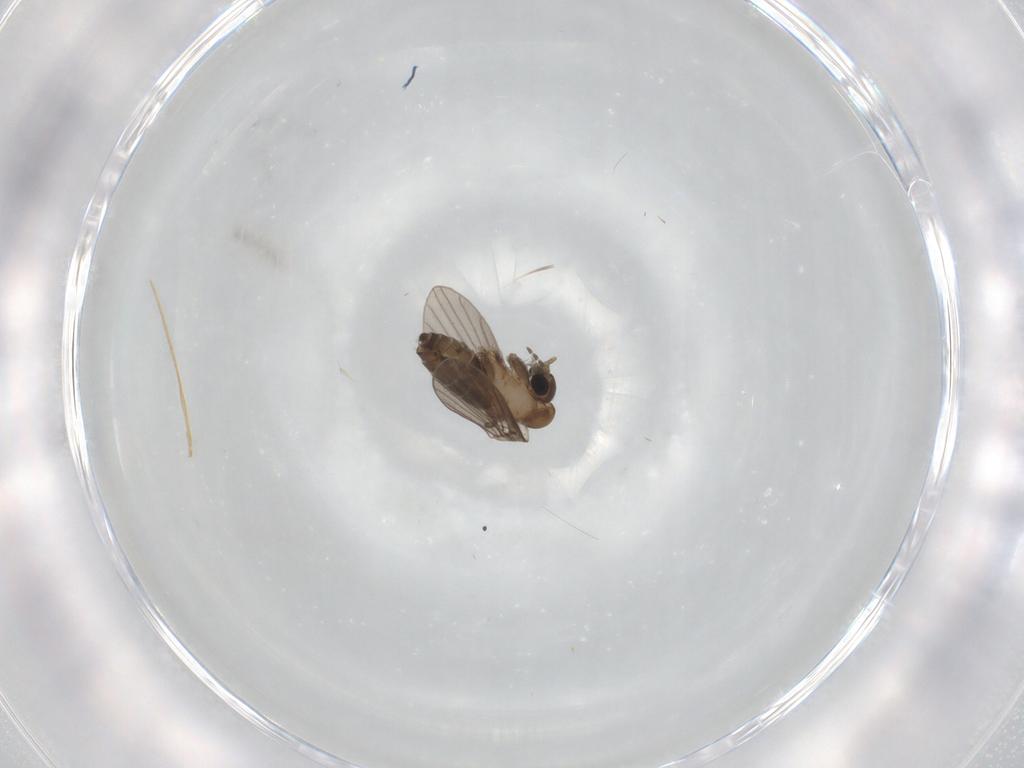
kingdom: Animalia
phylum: Arthropoda
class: Insecta
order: Diptera
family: Psychodidae
